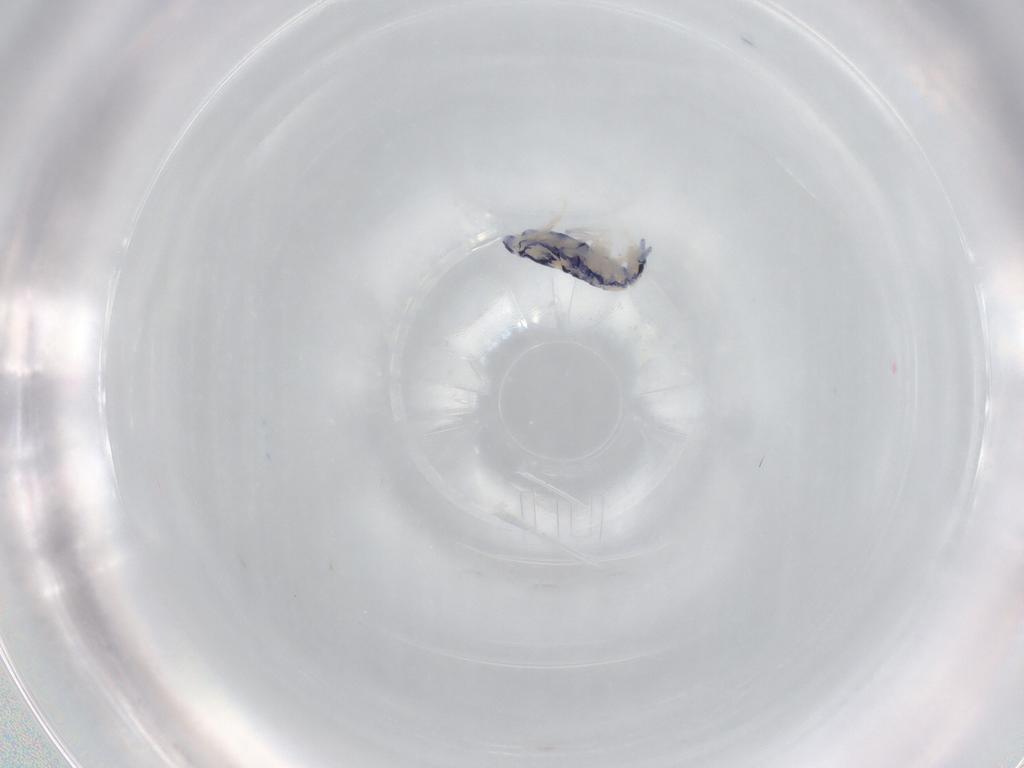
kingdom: Animalia
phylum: Arthropoda
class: Collembola
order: Entomobryomorpha
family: Entomobryidae
